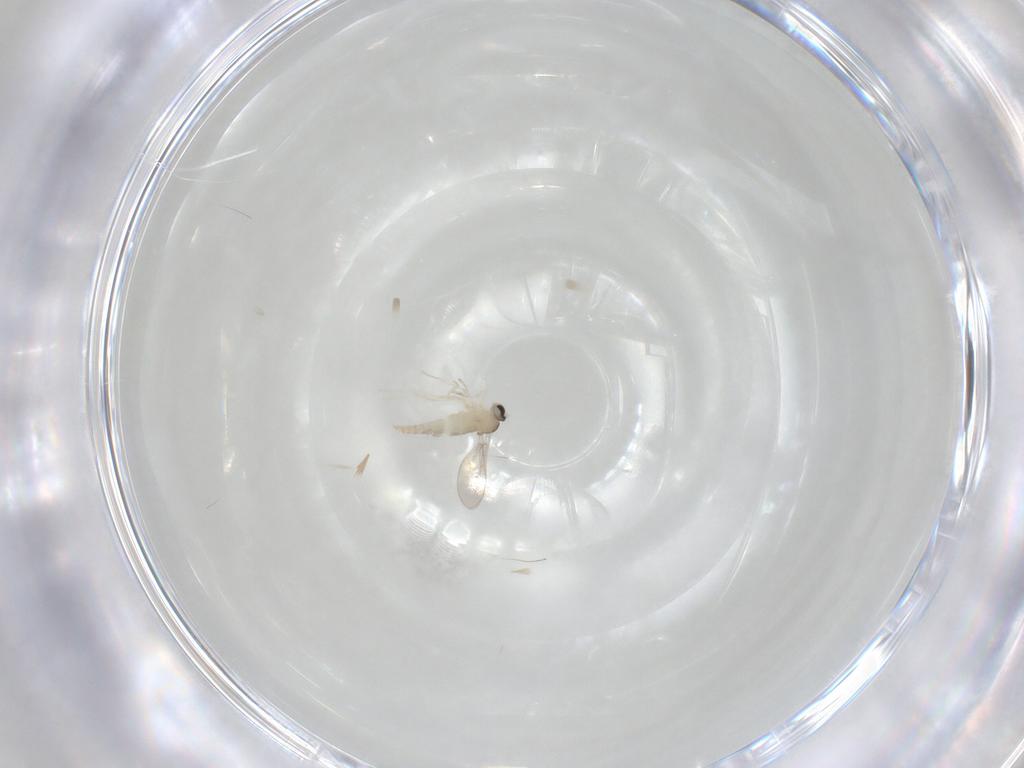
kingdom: Animalia
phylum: Arthropoda
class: Insecta
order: Diptera
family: Cecidomyiidae
